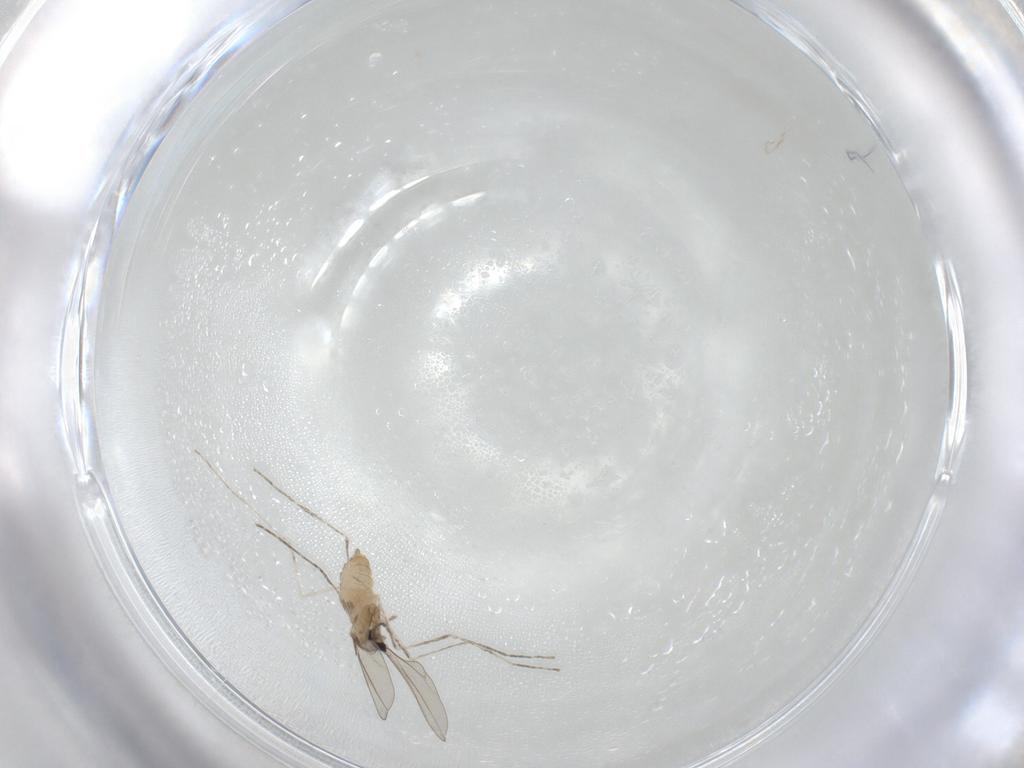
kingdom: Animalia
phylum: Arthropoda
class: Insecta
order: Diptera
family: Cecidomyiidae
